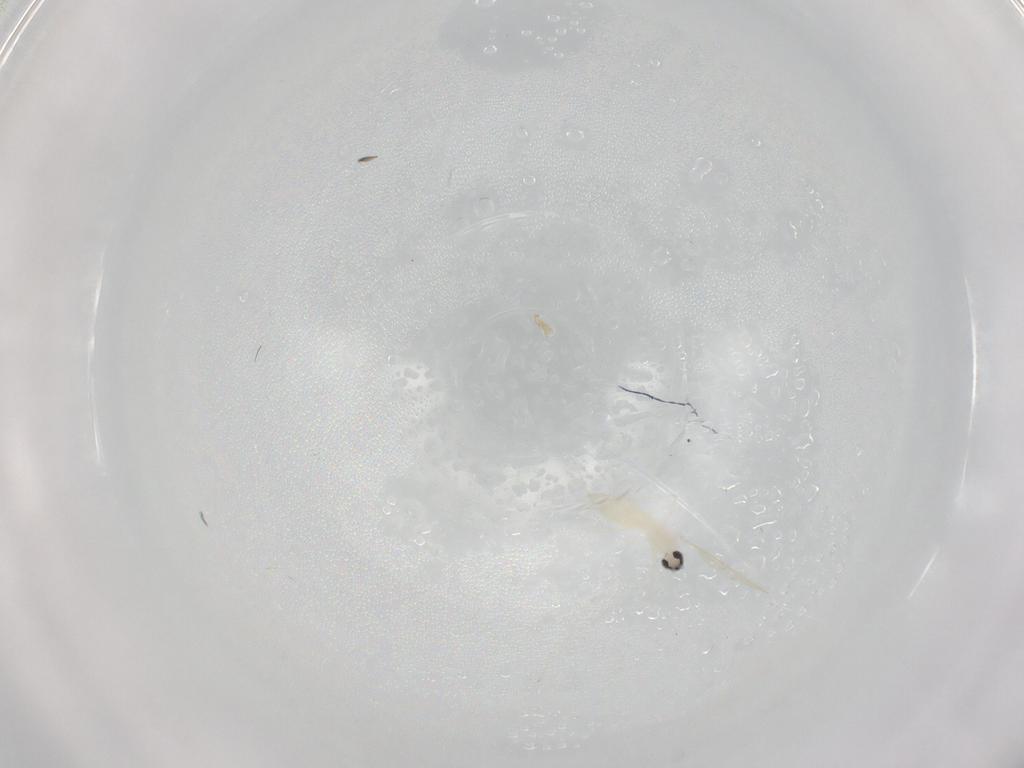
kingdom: Animalia
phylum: Arthropoda
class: Insecta
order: Diptera
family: Cecidomyiidae
